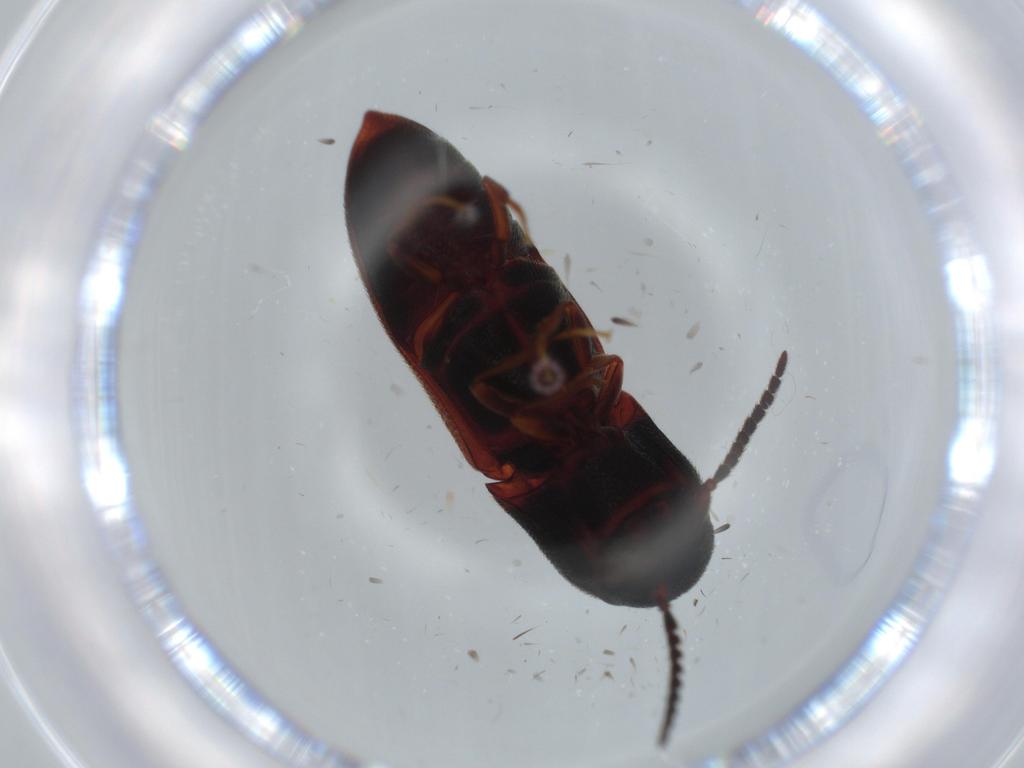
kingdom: Animalia
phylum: Arthropoda
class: Insecta
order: Coleoptera
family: Eucnemidae
